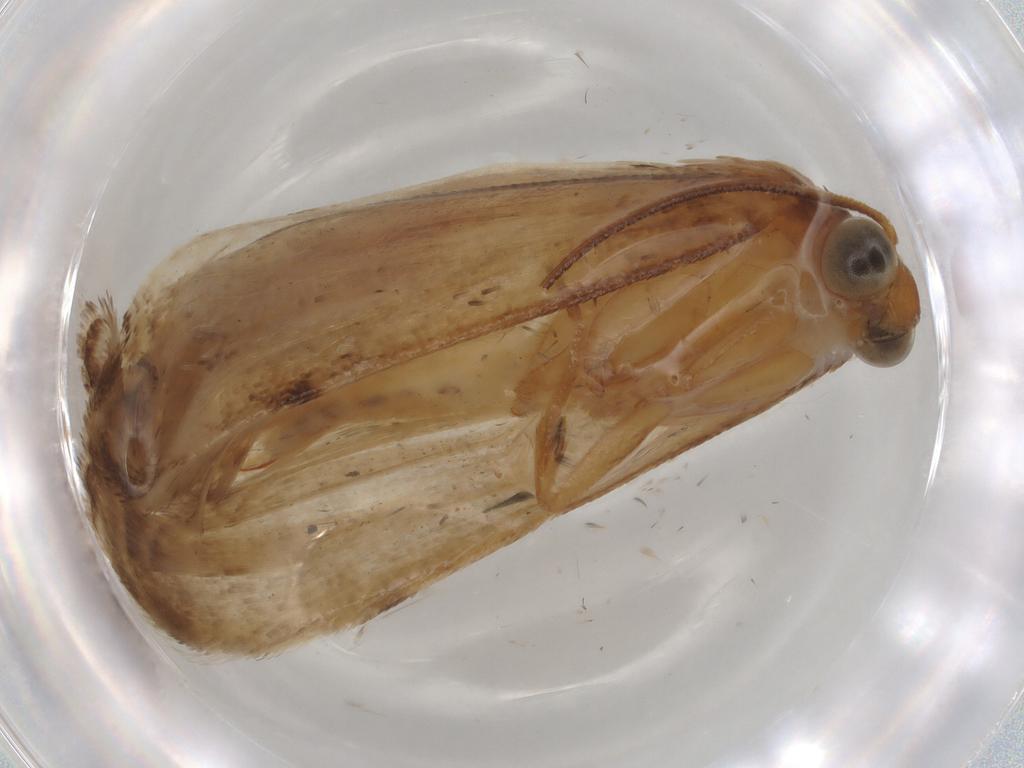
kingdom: Animalia
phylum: Arthropoda
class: Insecta
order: Lepidoptera
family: Crambidae
